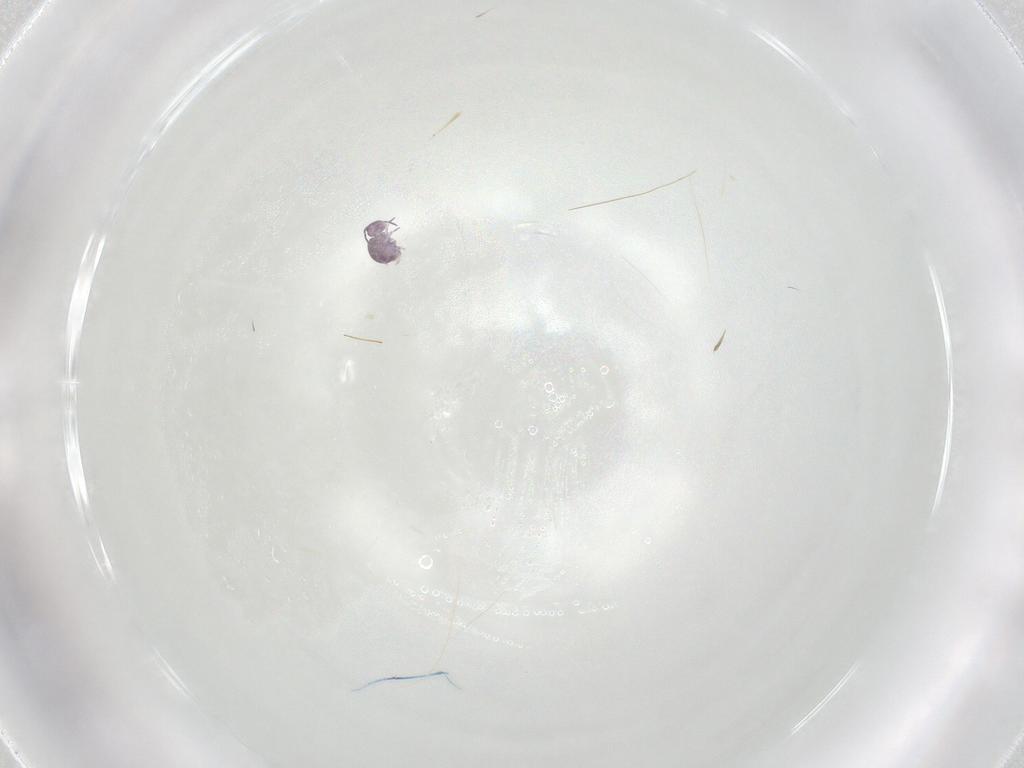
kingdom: Animalia
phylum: Arthropoda
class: Collembola
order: Symphypleona
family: Sminthurididae
